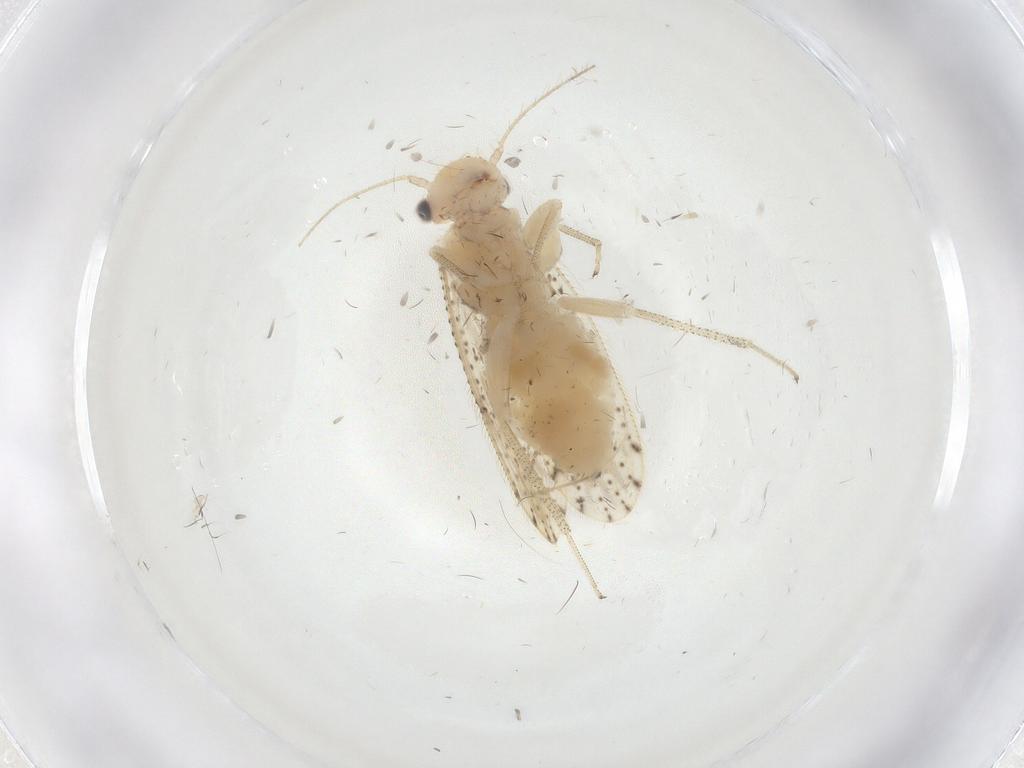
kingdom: Animalia
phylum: Arthropoda
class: Insecta
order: Psocodea
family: Myopsocidae
